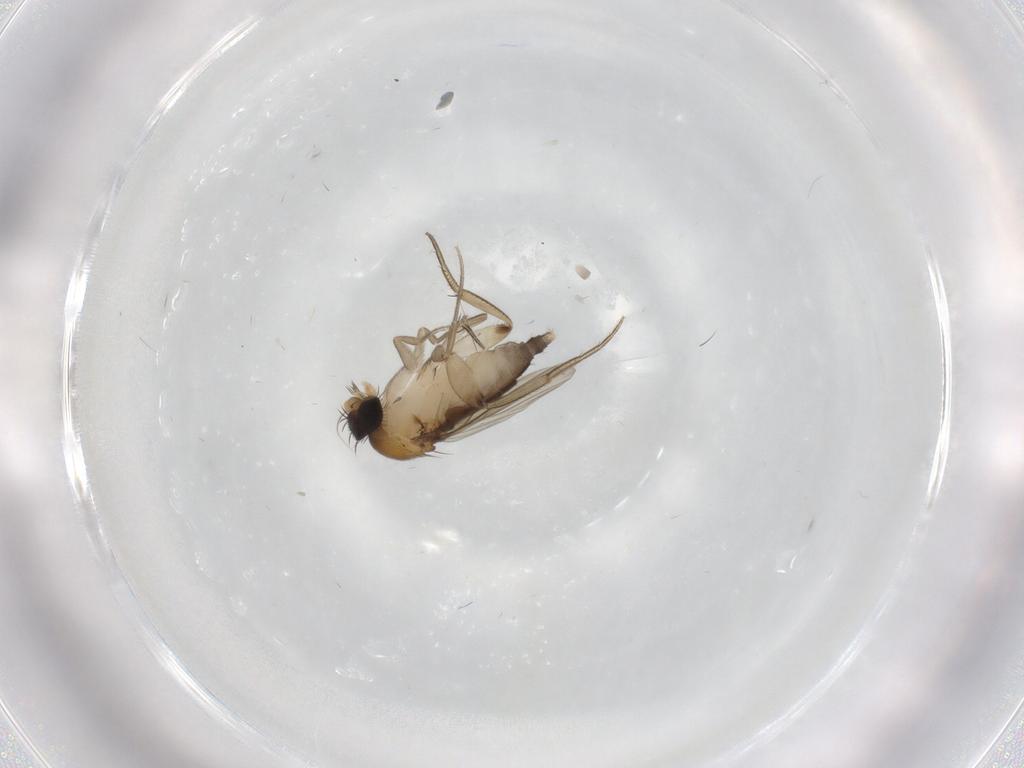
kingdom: Animalia
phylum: Arthropoda
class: Insecta
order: Diptera
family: Phoridae
